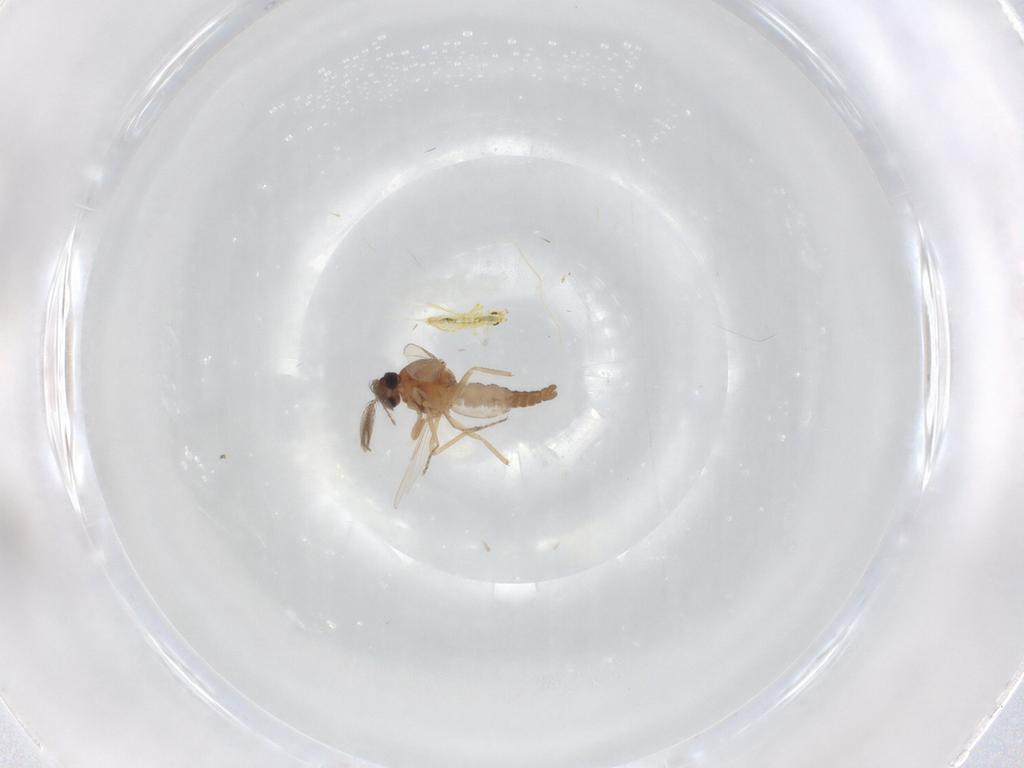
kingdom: Animalia
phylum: Arthropoda
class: Insecta
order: Diptera
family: Ceratopogonidae
